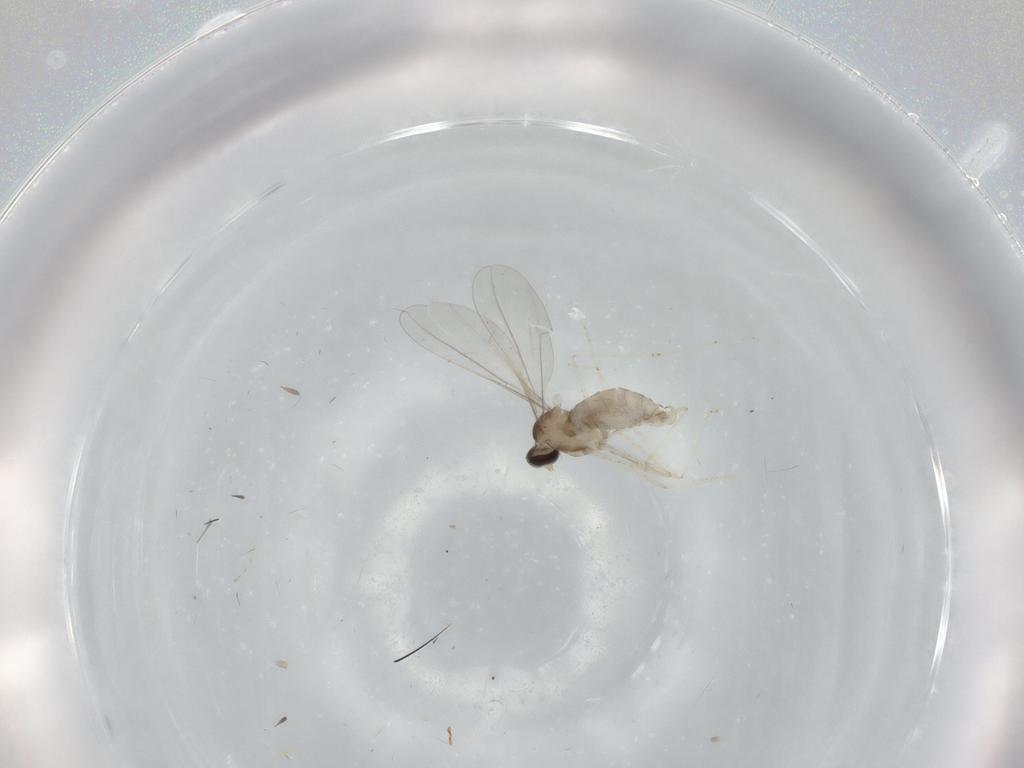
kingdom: Animalia
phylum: Arthropoda
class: Insecta
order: Diptera
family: Cecidomyiidae
